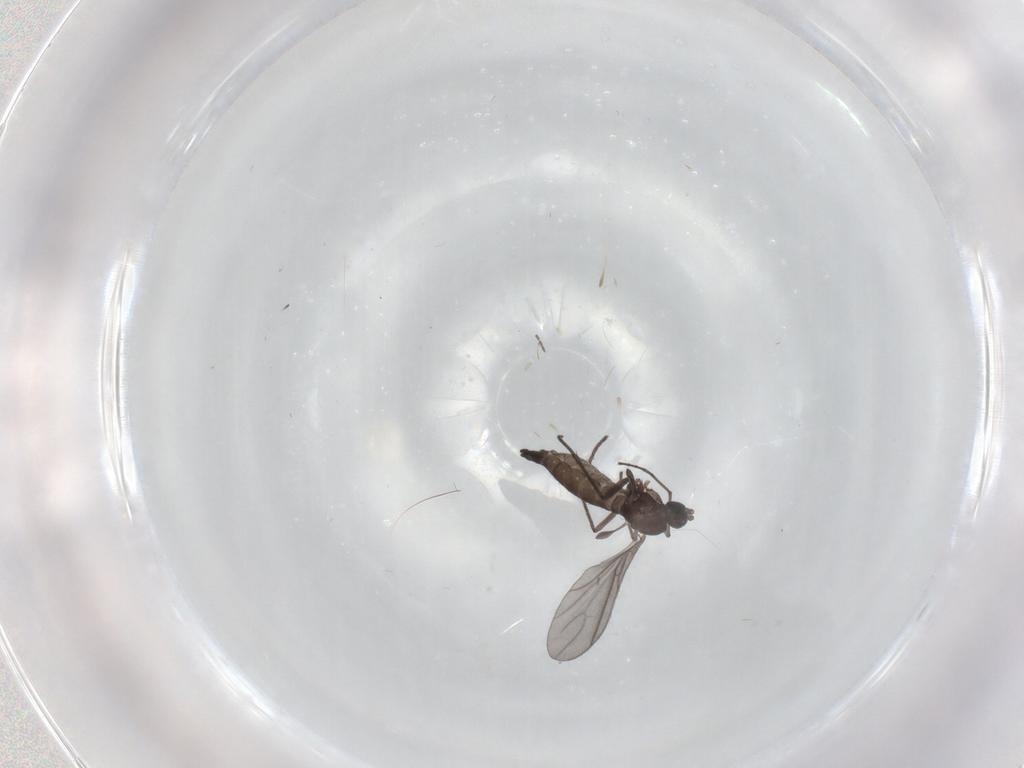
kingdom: Animalia
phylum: Arthropoda
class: Insecta
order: Diptera
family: Sciaridae
